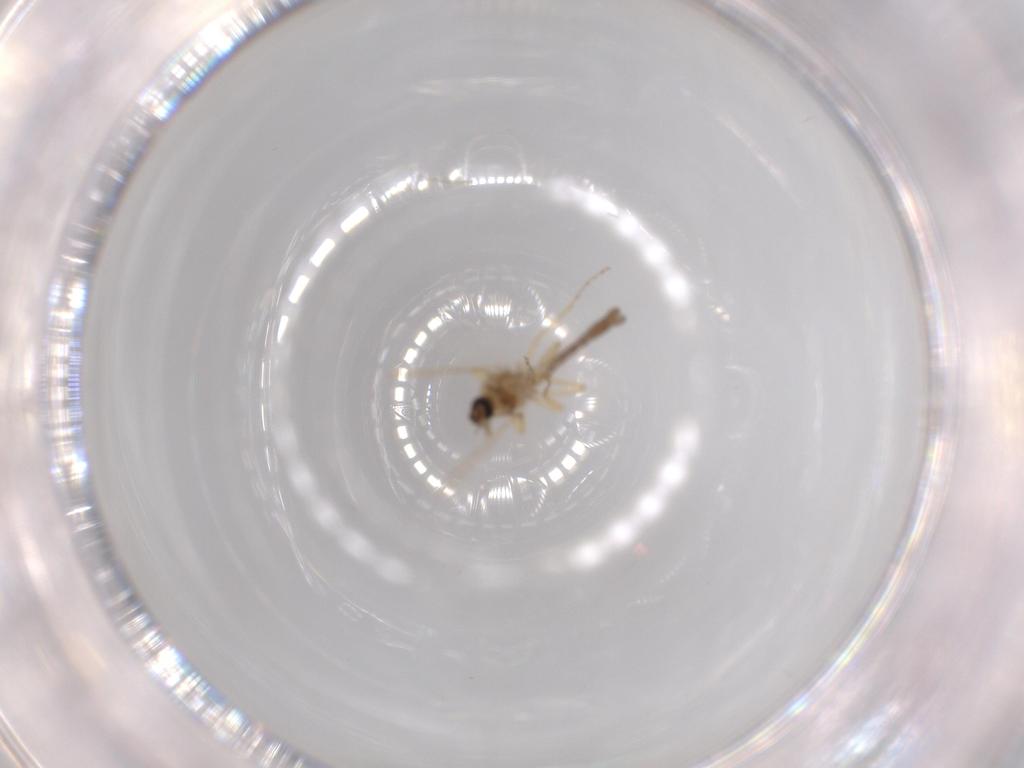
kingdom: Animalia
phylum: Arthropoda
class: Insecta
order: Diptera
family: Ceratopogonidae
